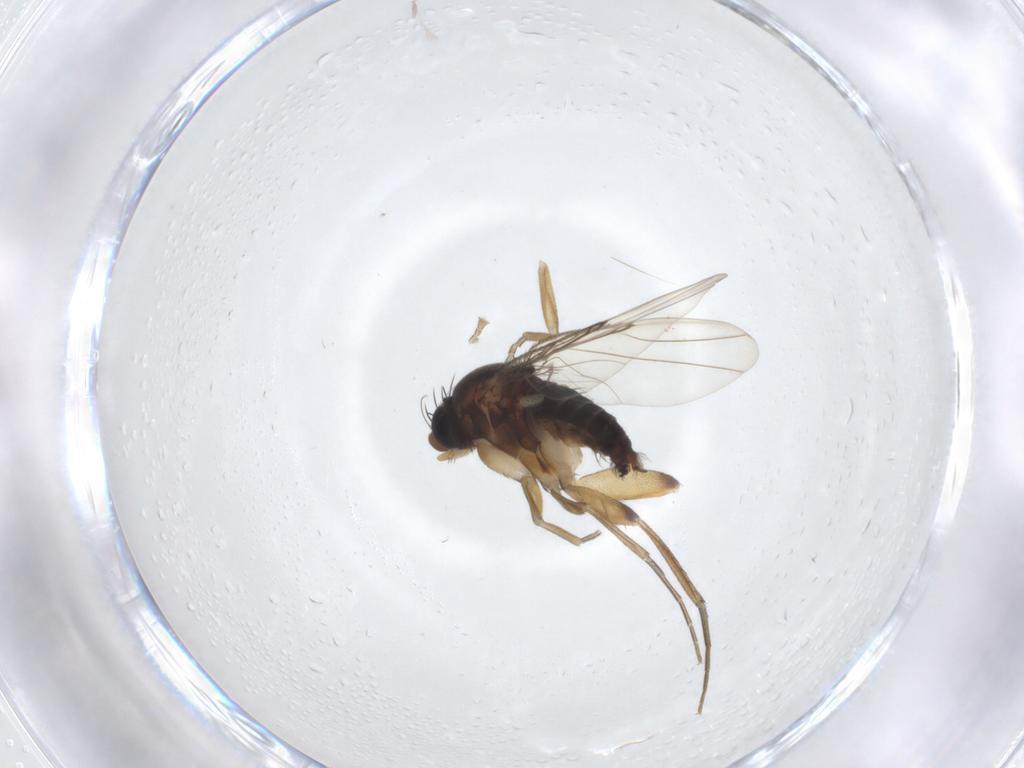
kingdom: Animalia
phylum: Arthropoda
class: Insecta
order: Diptera
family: Phoridae
